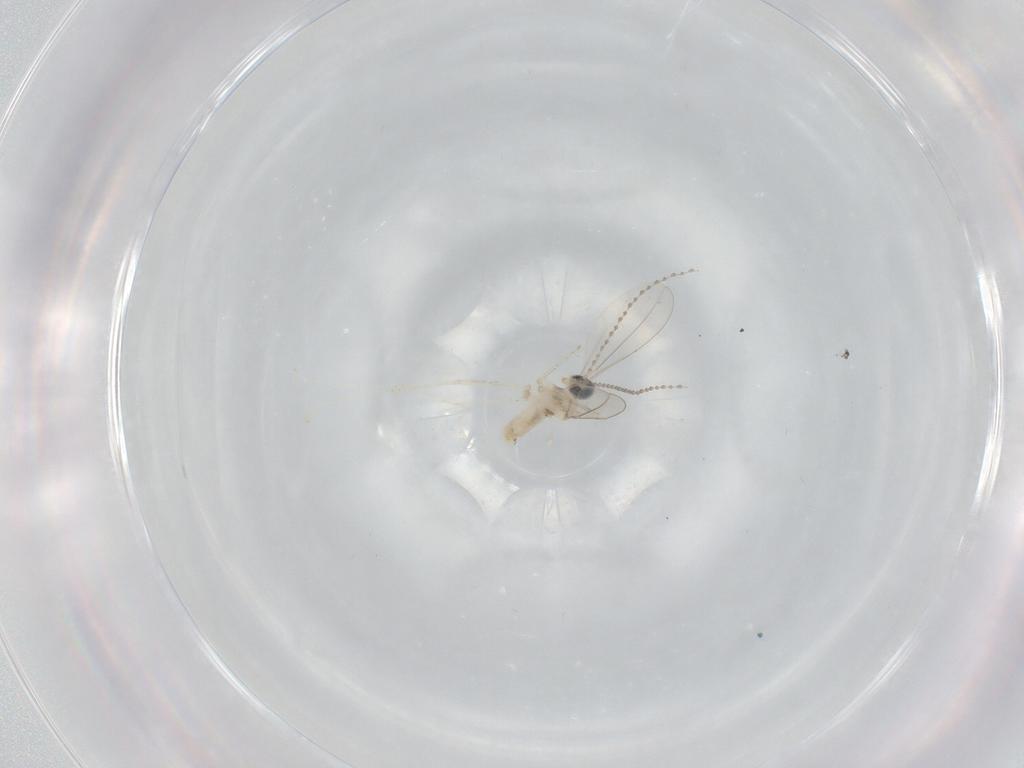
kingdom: Animalia
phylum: Arthropoda
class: Insecta
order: Diptera
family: Cecidomyiidae
